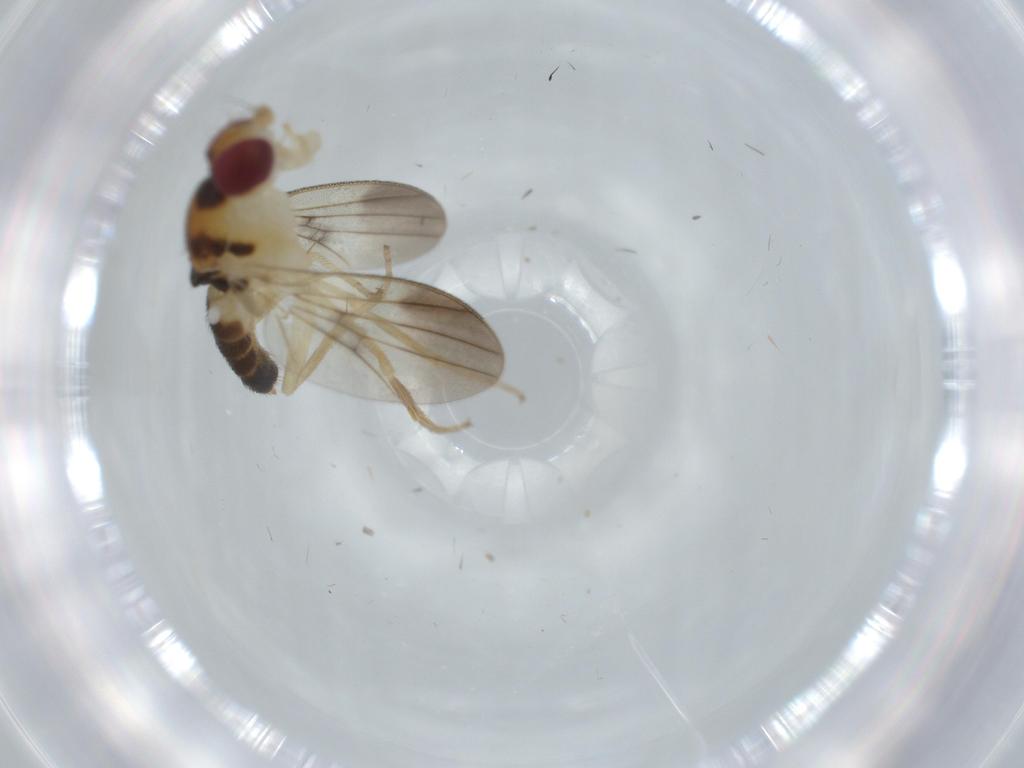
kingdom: Animalia
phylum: Arthropoda
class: Insecta
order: Diptera
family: Clusiidae
